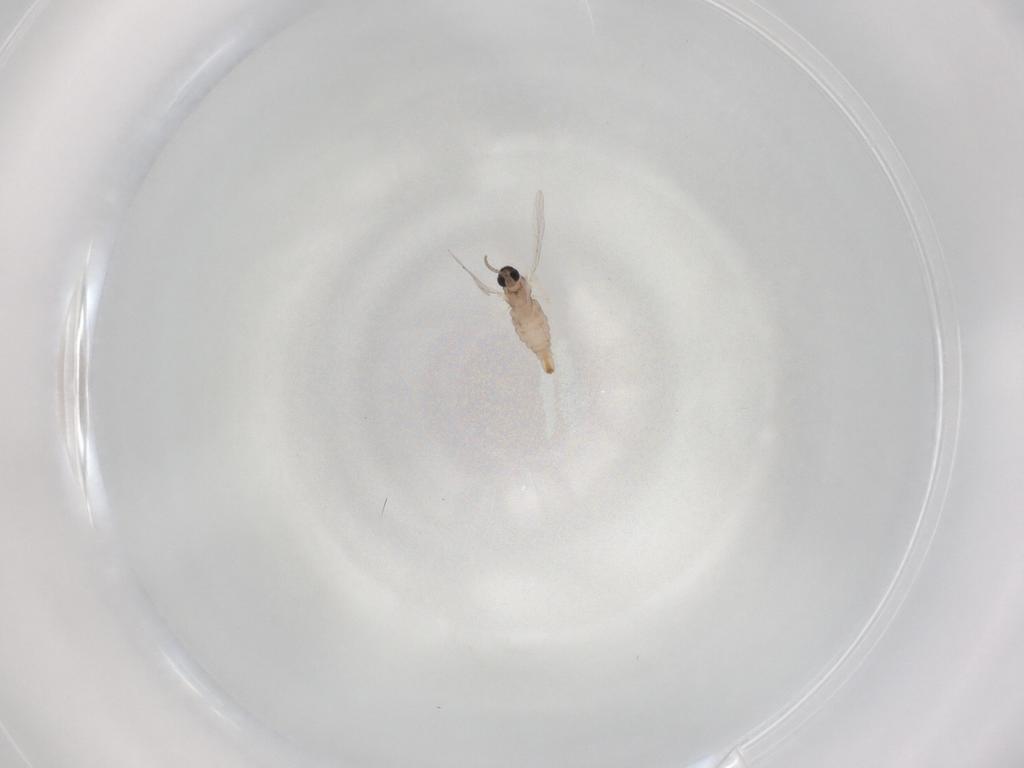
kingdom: Animalia
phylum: Arthropoda
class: Insecta
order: Diptera
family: Cecidomyiidae
